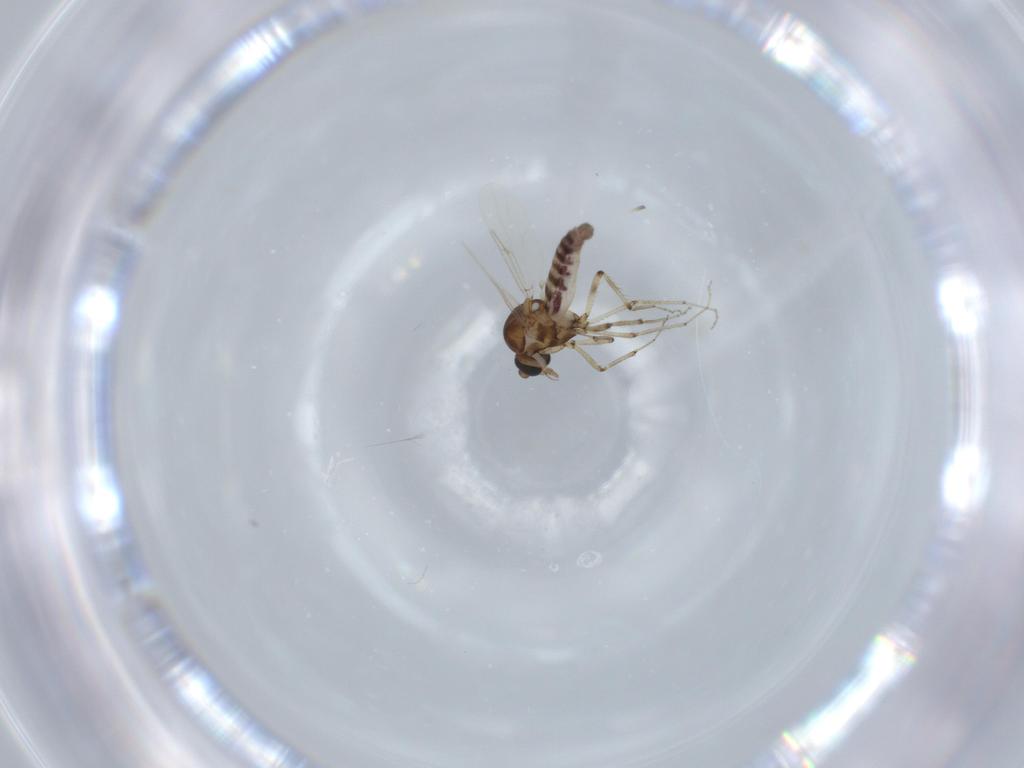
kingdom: Animalia
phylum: Arthropoda
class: Insecta
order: Diptera
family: Ceratopogonidae
